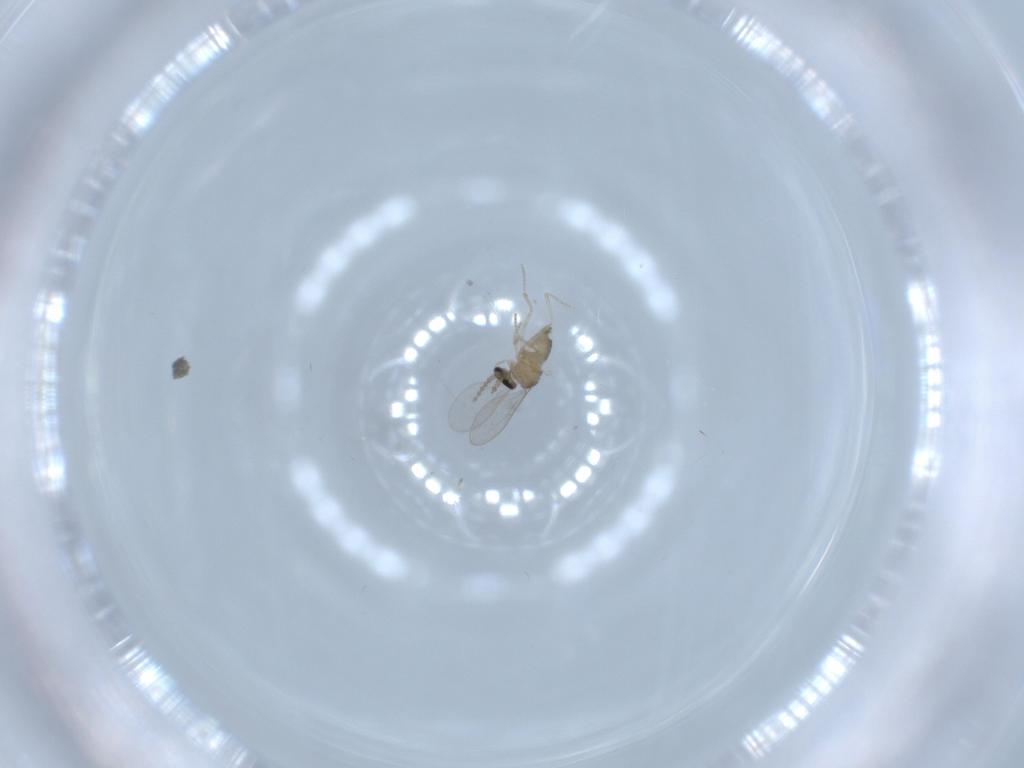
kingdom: Animalia
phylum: Arthropoda
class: Insecta
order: Diptera
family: Cecidomyiidae
